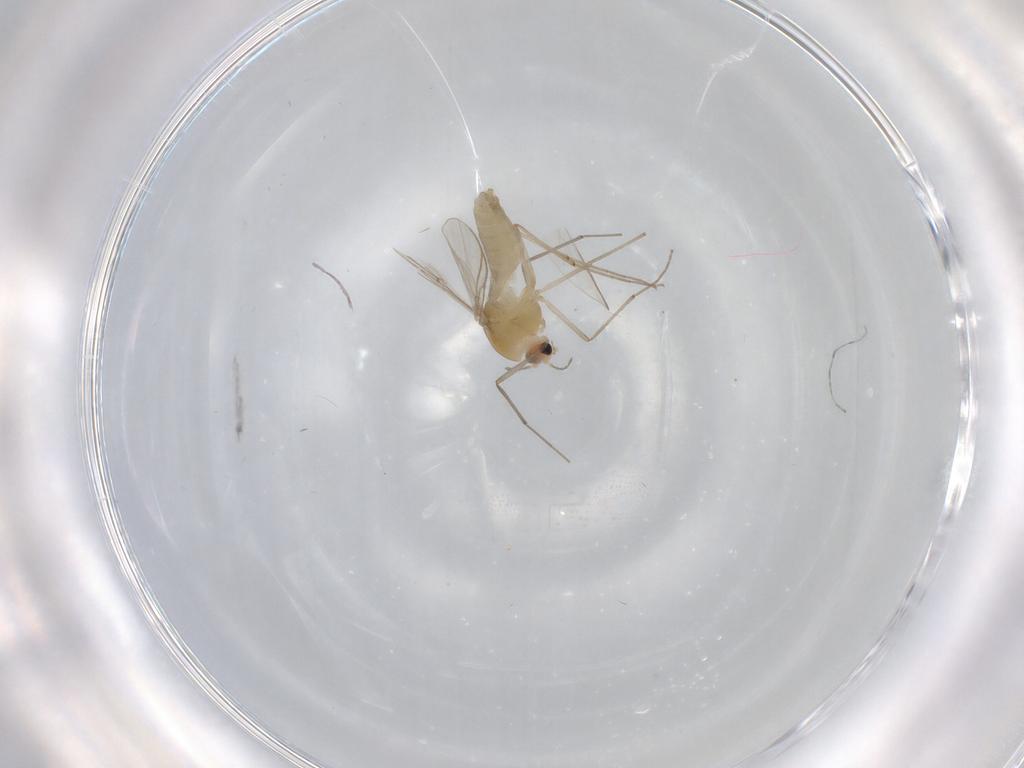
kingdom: Animalia
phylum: Arthropoda
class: Insecta
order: Diptera
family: Chironomidae
